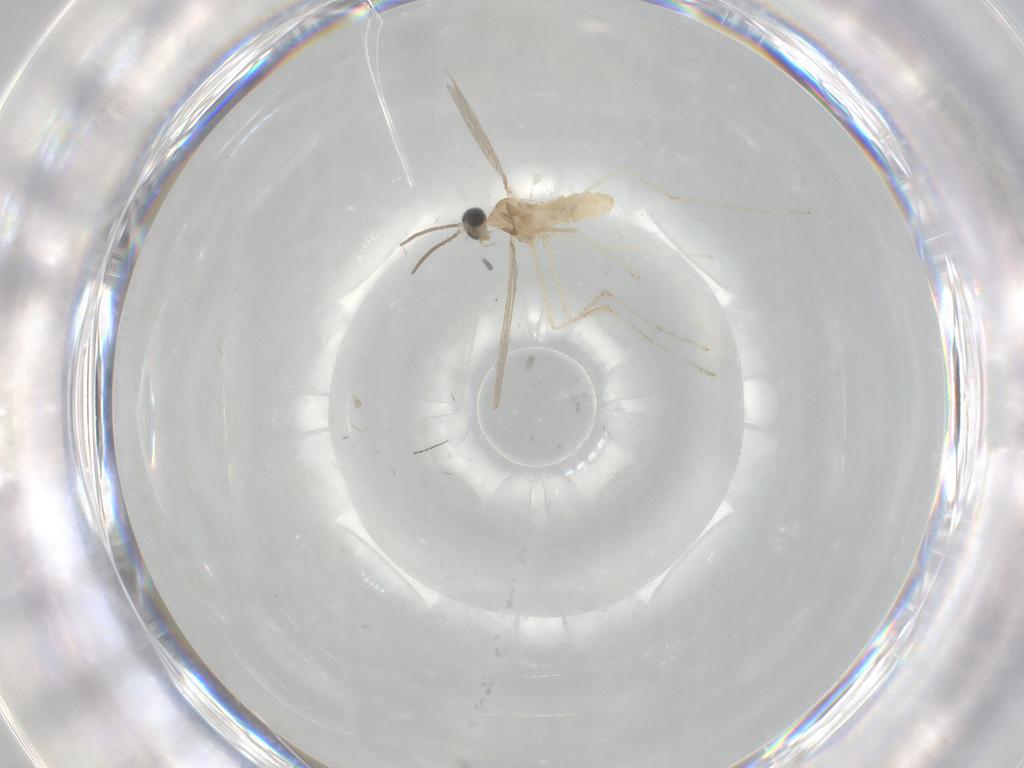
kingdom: Animalia
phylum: Arthropoda
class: Insecta
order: Diptera
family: Cecidomyiidae
